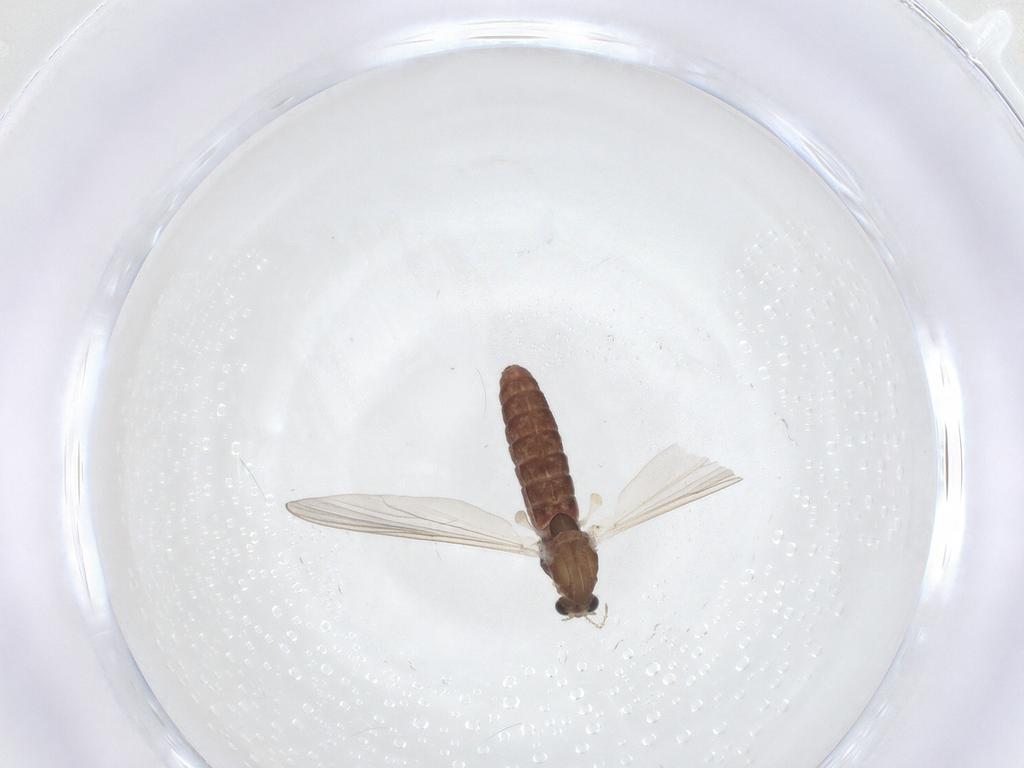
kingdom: Animalia
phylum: Arthropoda
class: Insecta
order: Diptera
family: Chironomidae
